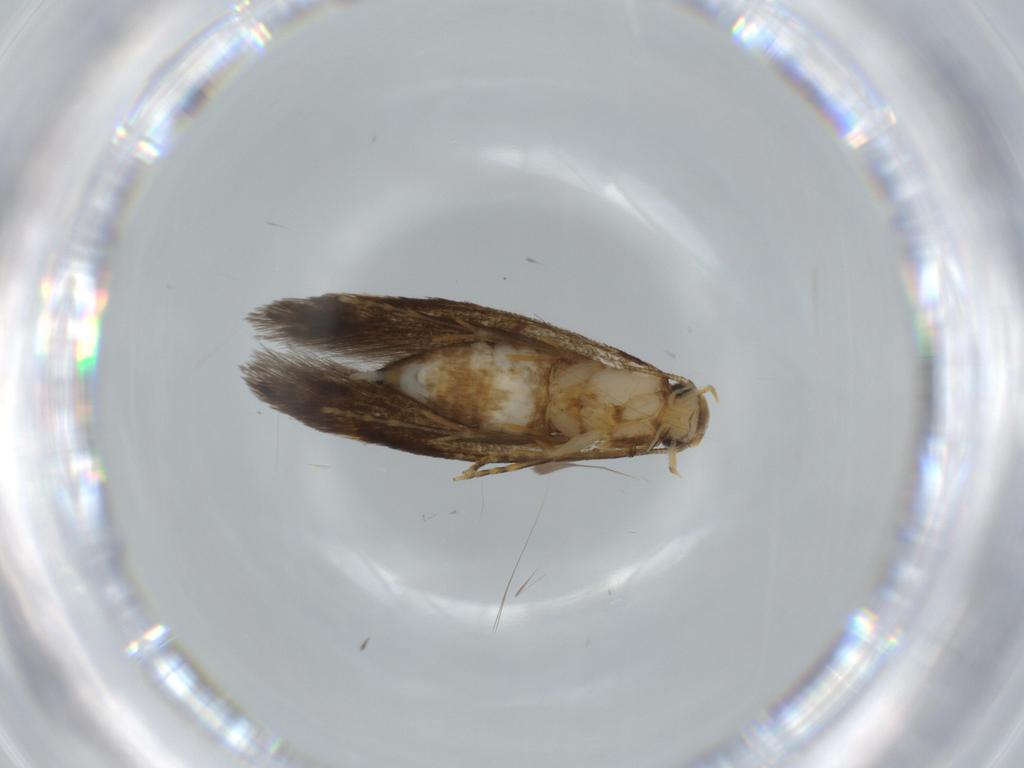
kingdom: Animalia
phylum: Arthropoda
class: Insecta
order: Lepidoptera
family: Tineidae
